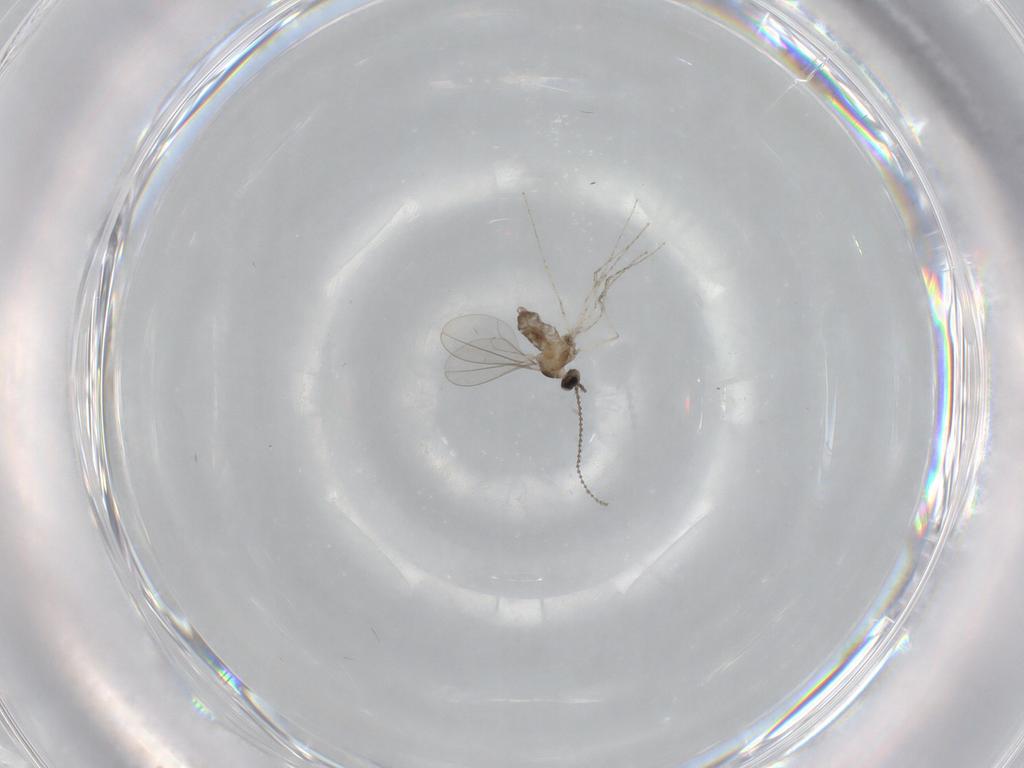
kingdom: Animalia
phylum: Arthropoda
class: Insecta
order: Diptera
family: Cecidomyiidae
